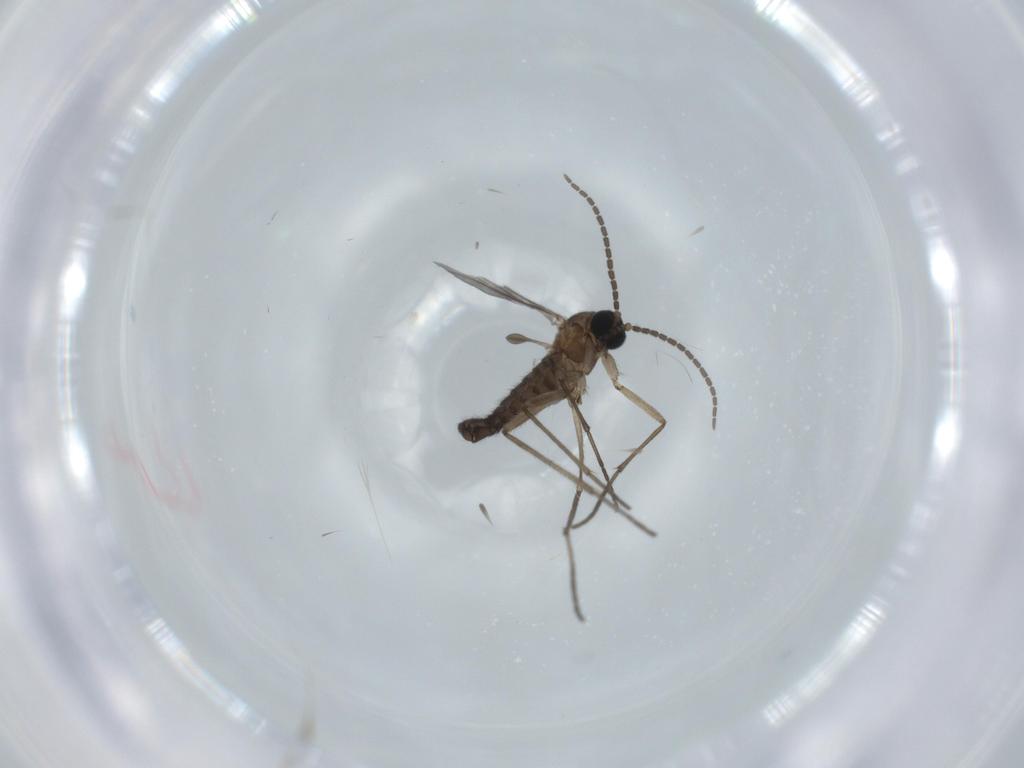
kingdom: Animalia
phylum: Arthropoda
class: Insecta
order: Diptera
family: Sciaridae
